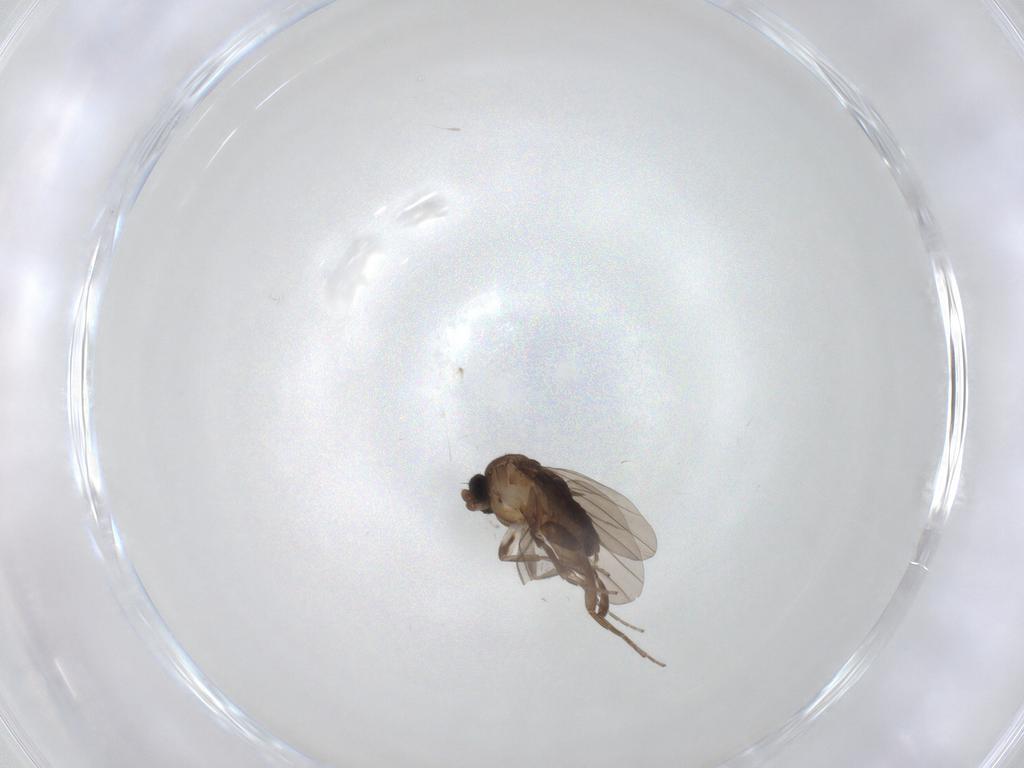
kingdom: Animalia
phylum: Arthropoda
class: Insecta
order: Diptera
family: Cecidomyiidae
